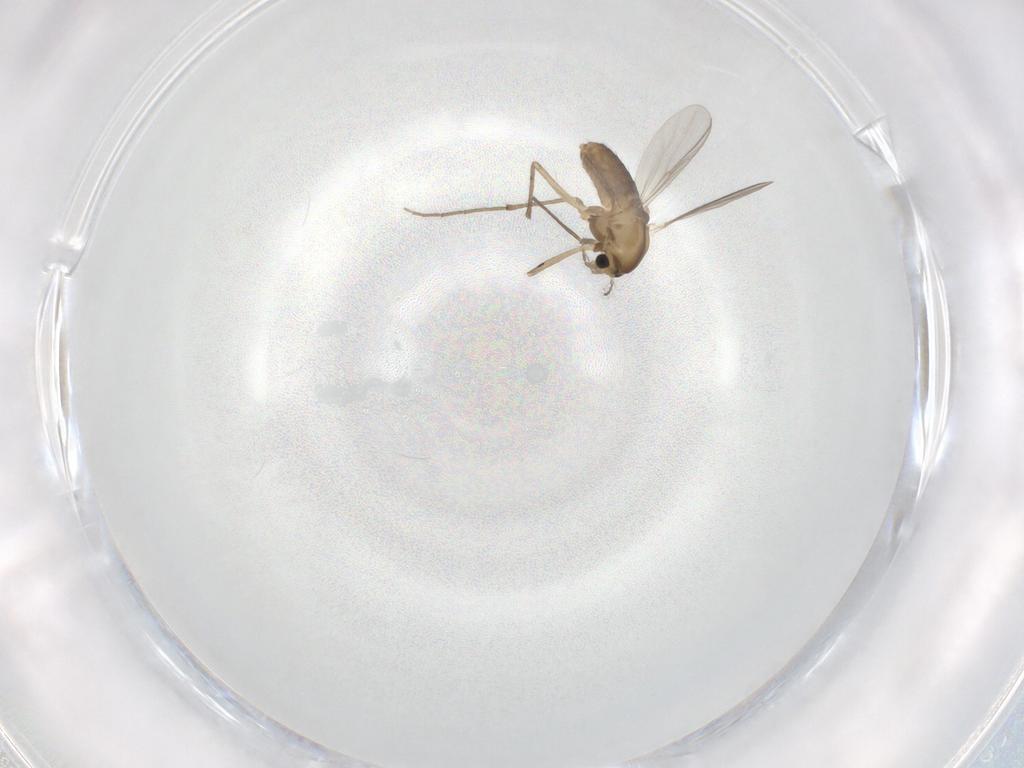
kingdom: Animalia
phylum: Arthropoda
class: Insecta
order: Diptera
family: Chironomidae
